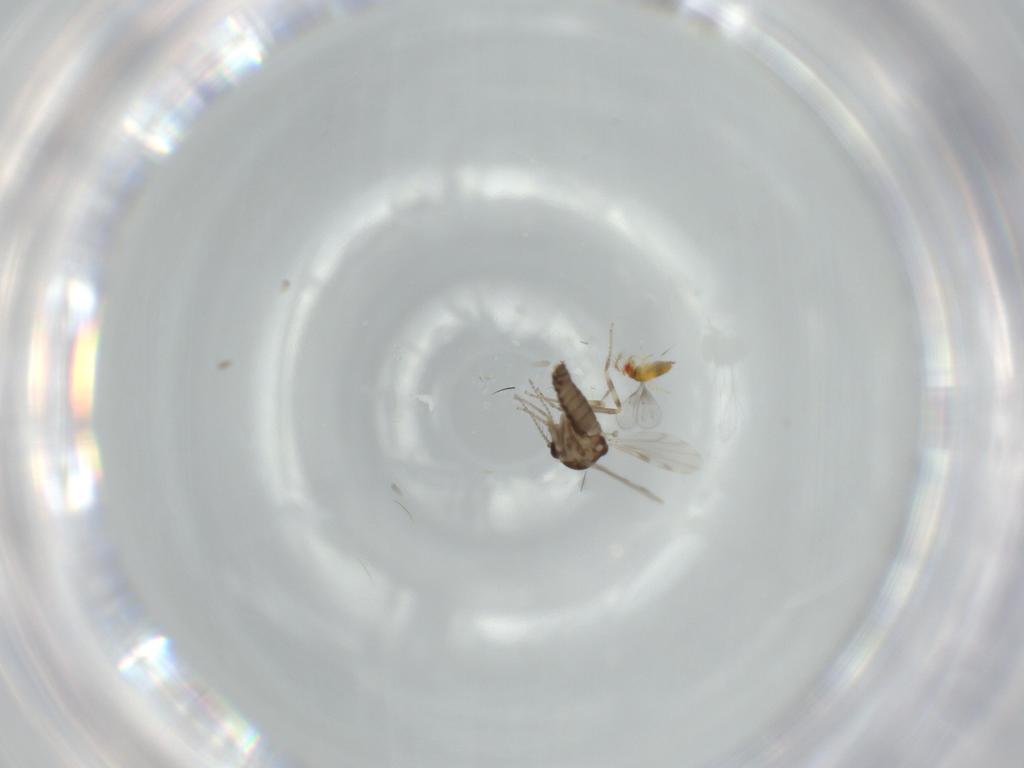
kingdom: Animalia
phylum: Arthropoda
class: Insecta
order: Diptera
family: Ceratopogonidae
